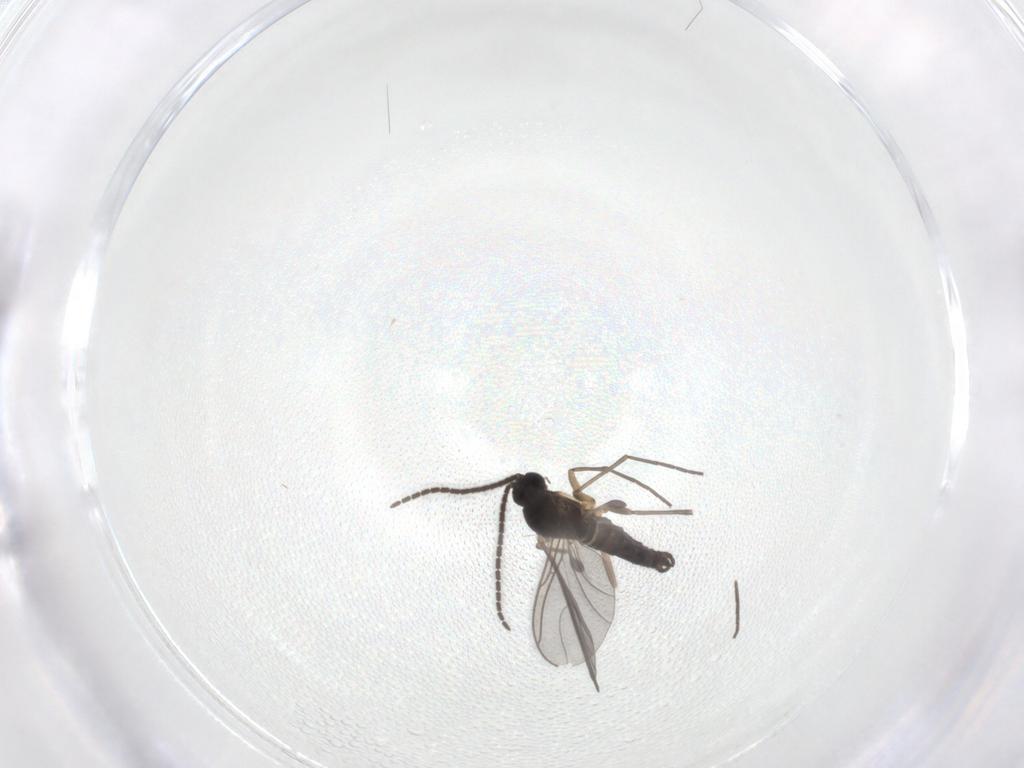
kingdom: Animalia
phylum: Arthropoda
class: Insecta
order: Diptera
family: Sciaridae
